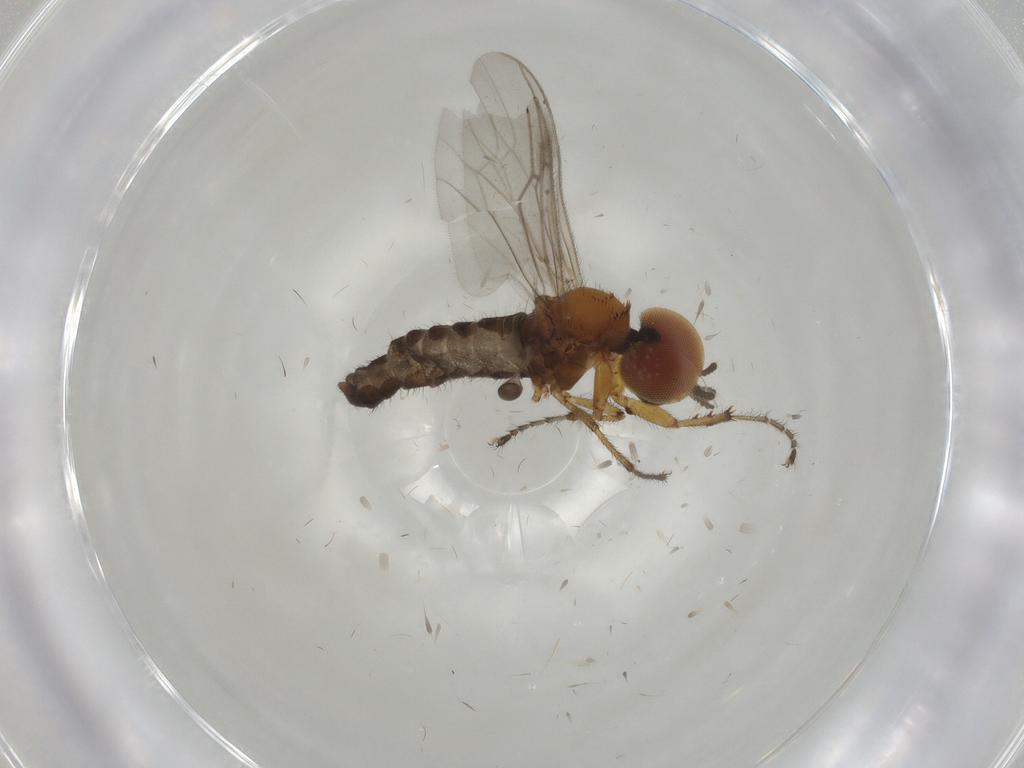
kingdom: Animalia
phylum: Arthropoda
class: Insecta
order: Diptera
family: Bibionidae
